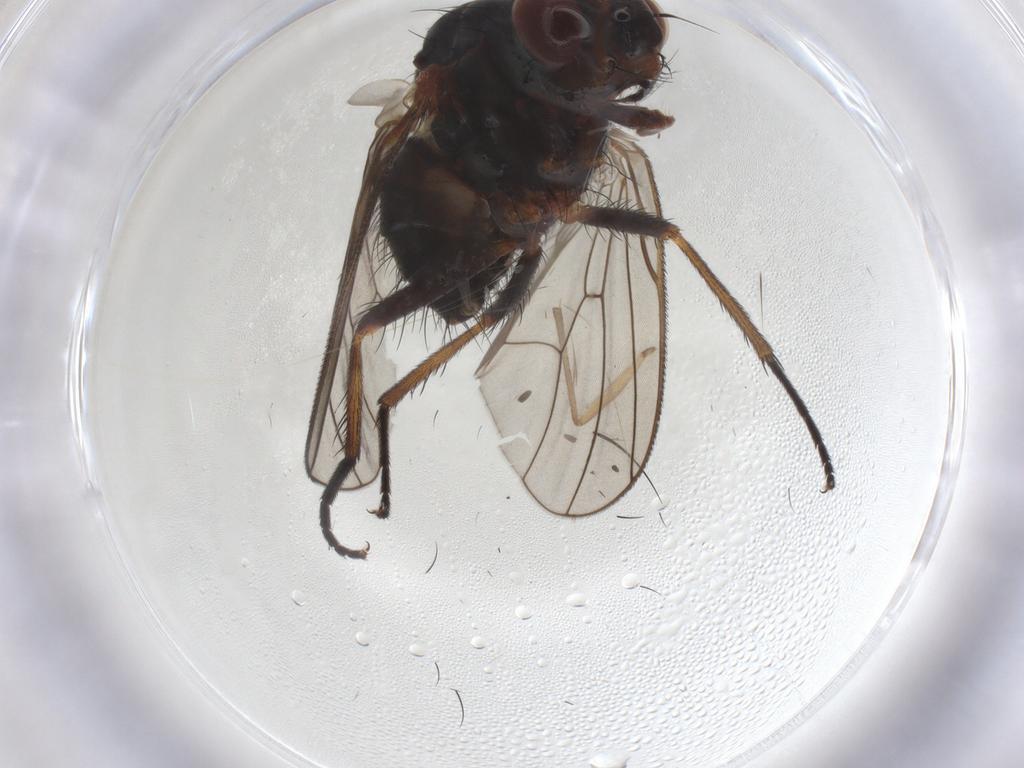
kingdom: Animalia
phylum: Arthropoda
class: Insecta
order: Diptera
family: Anthomyiidae
